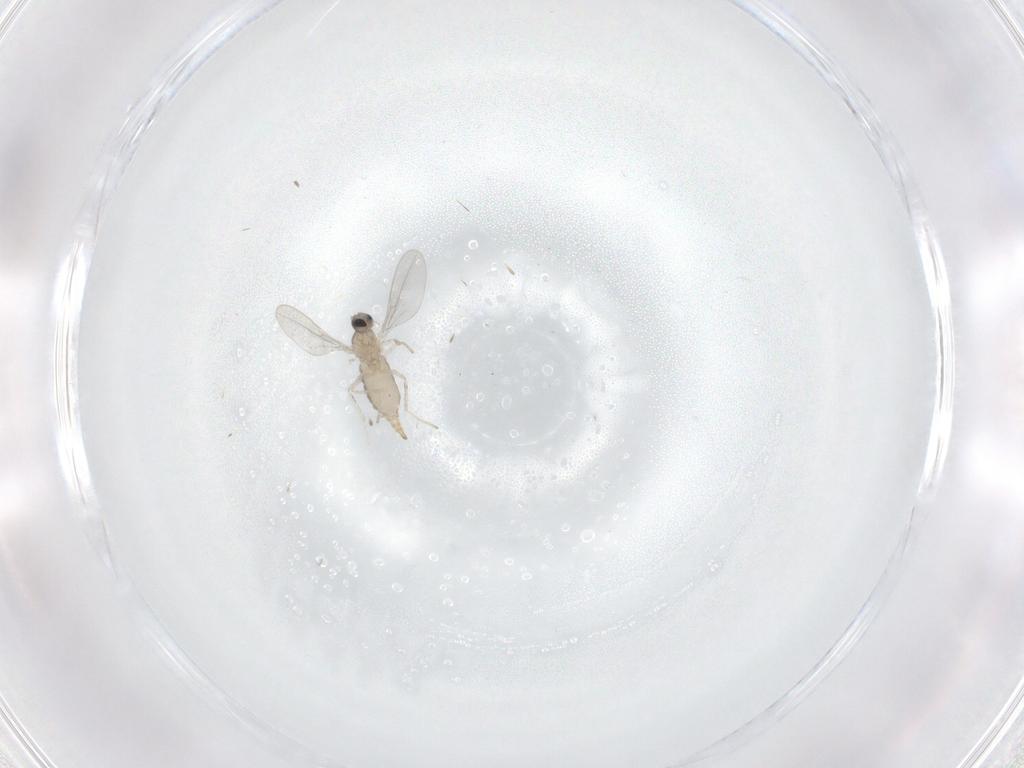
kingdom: Animalia
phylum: Arthropoda
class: Insecta
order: Diptera
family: Cecidomyiidae
